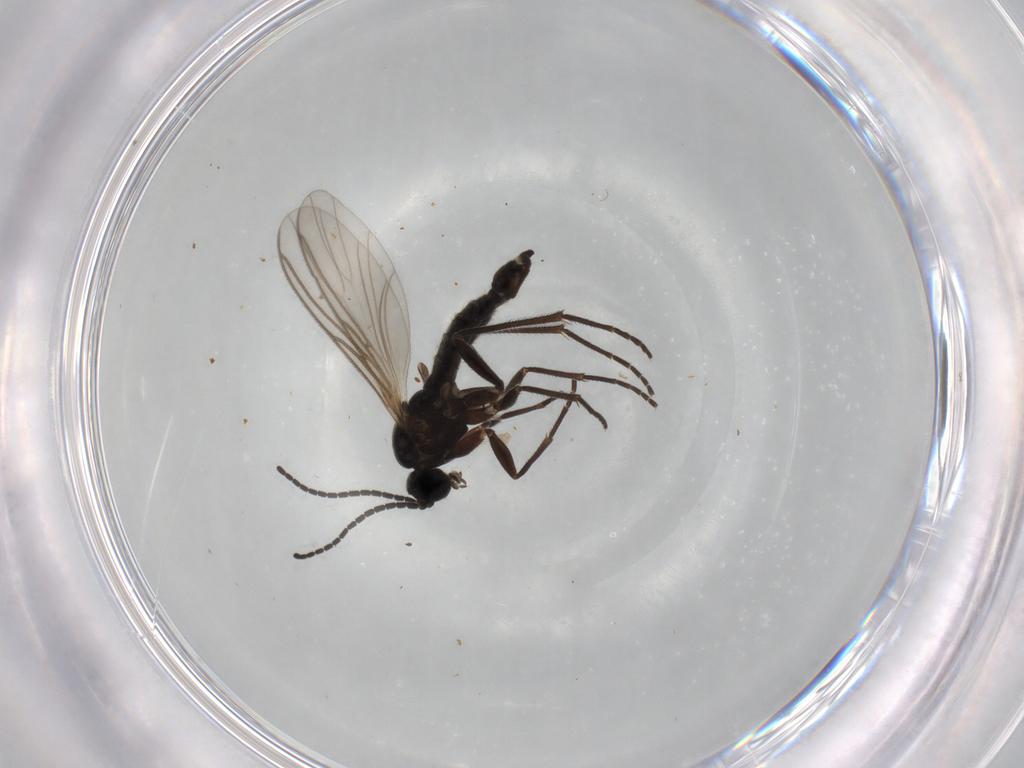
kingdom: Animalia
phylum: Arthropoda
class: Insecta
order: Diptera
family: Sciaridae
